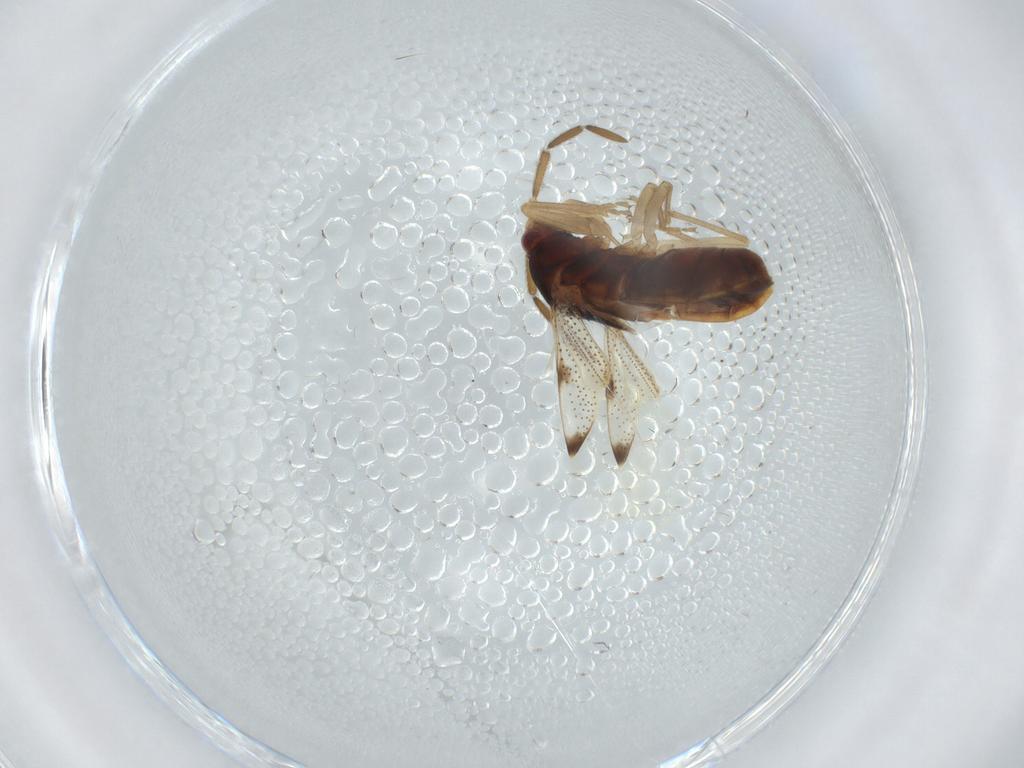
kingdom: Animalia
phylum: Arthropoda
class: Insecta
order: Hemiptera
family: Rhyparochromidae
